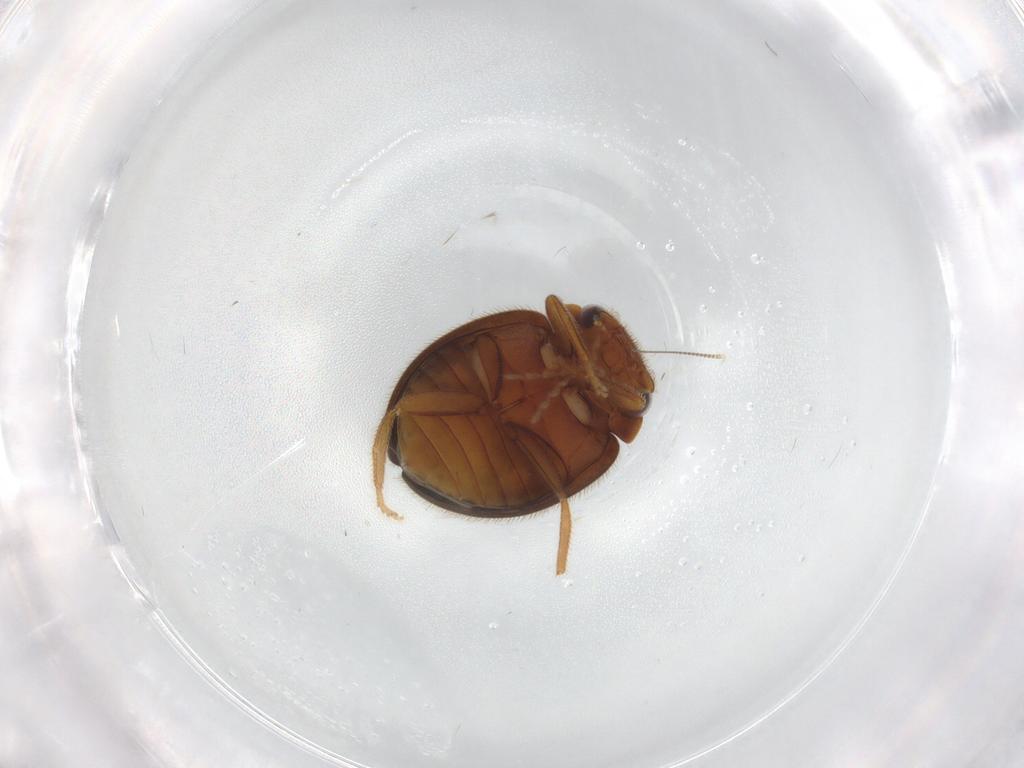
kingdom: Animalia
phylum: Arthropoda
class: Insecta
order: Coleoptera
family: Scirtidae
